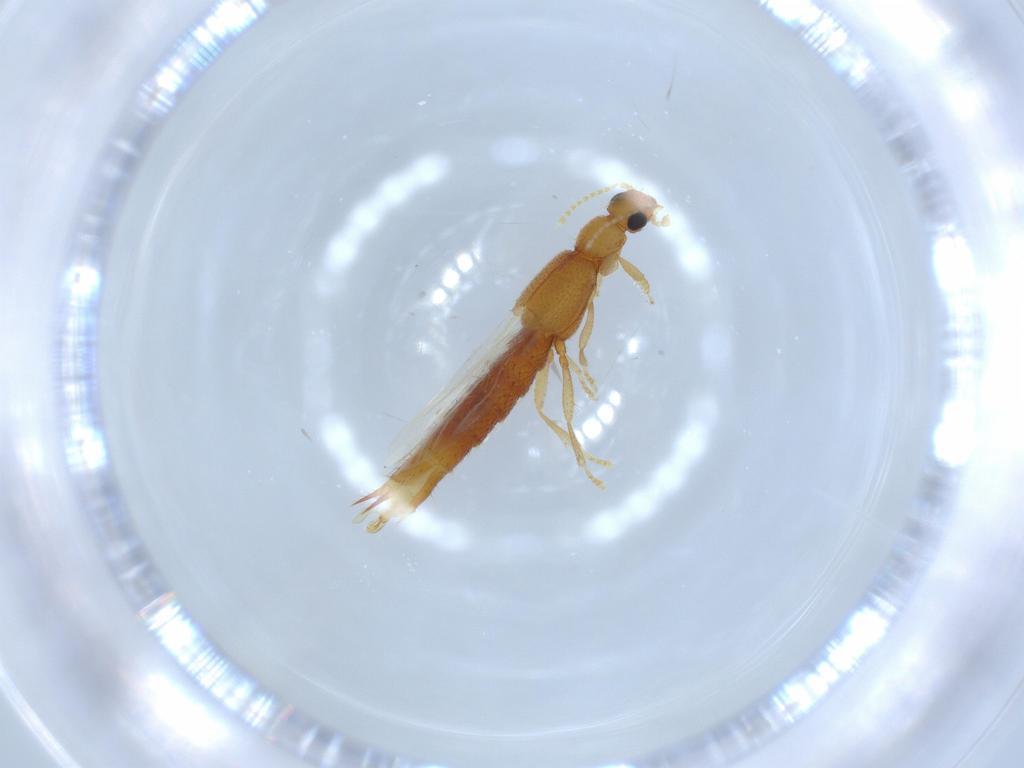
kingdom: Animalia
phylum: Arthropoda
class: Insecta
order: Coleoptera
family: Staphylinidae
